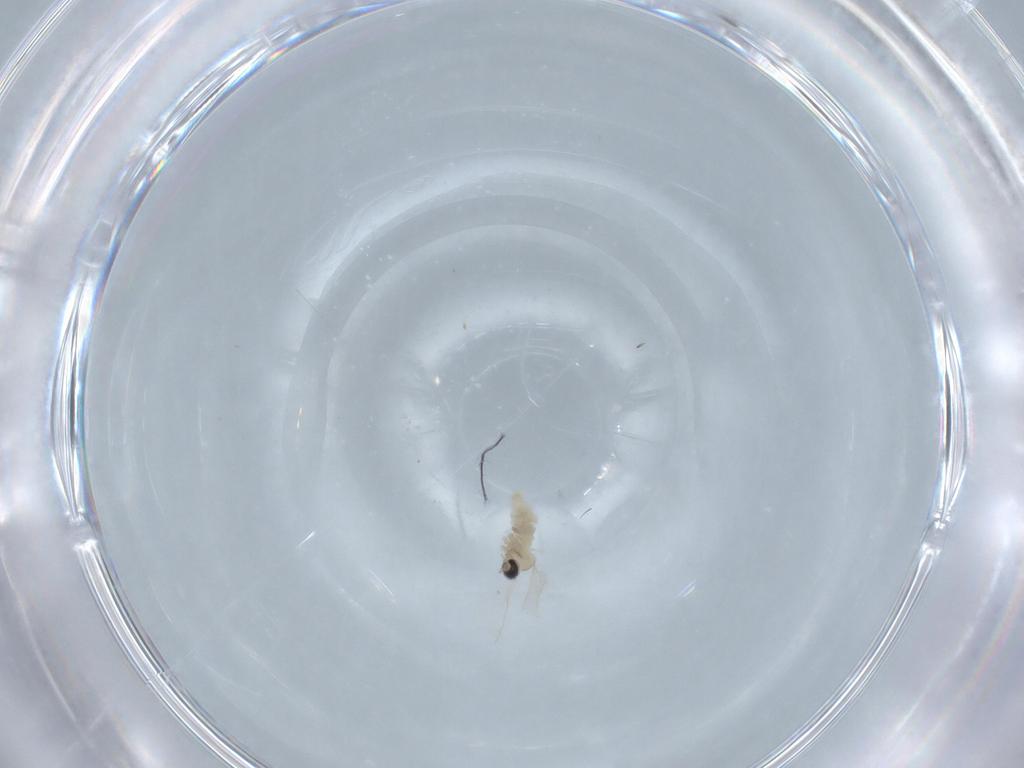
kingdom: Animalia
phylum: Arthropoda
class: Insecta
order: Diptera
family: Cecidomyiidae
